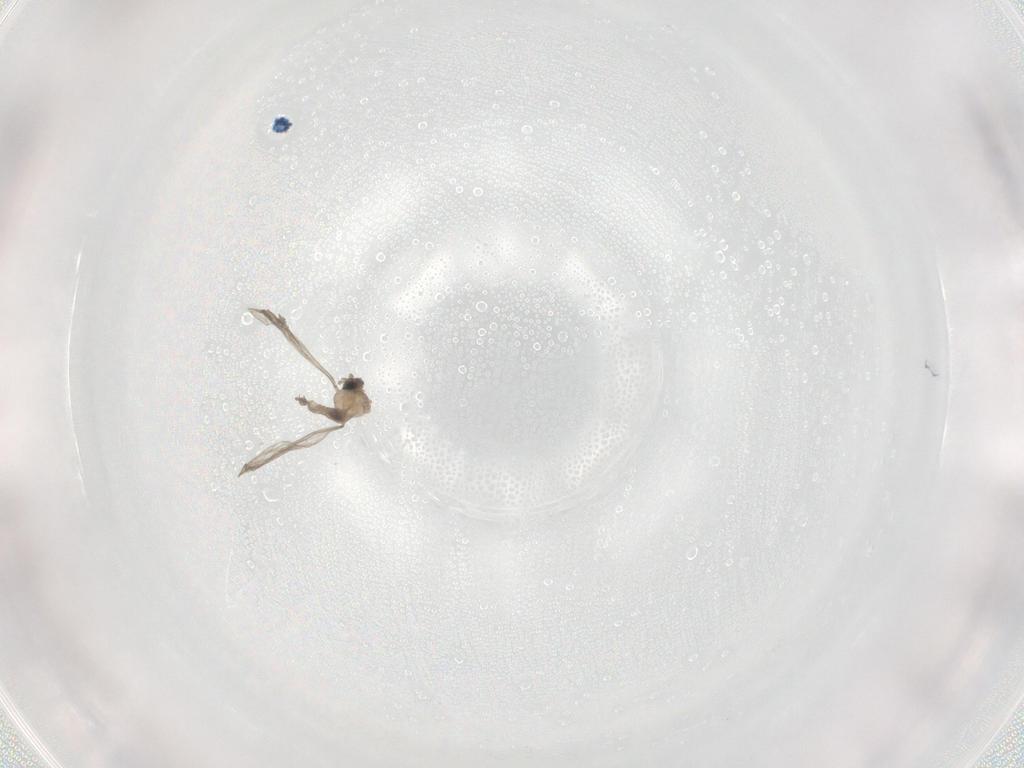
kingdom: Animalia
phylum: Arthropoda
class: Insecta
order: Diptera
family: Cecidomyiidae
